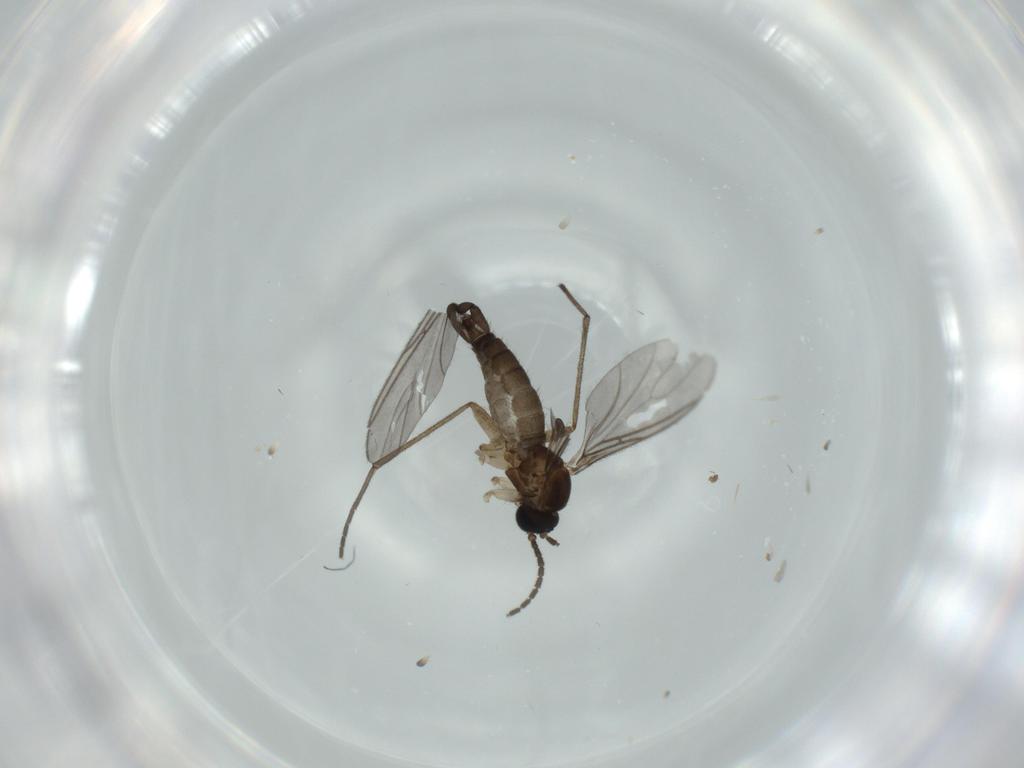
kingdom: Animalia
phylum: Arthropoda
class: Insecta
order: Diptera
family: Sciaridae
